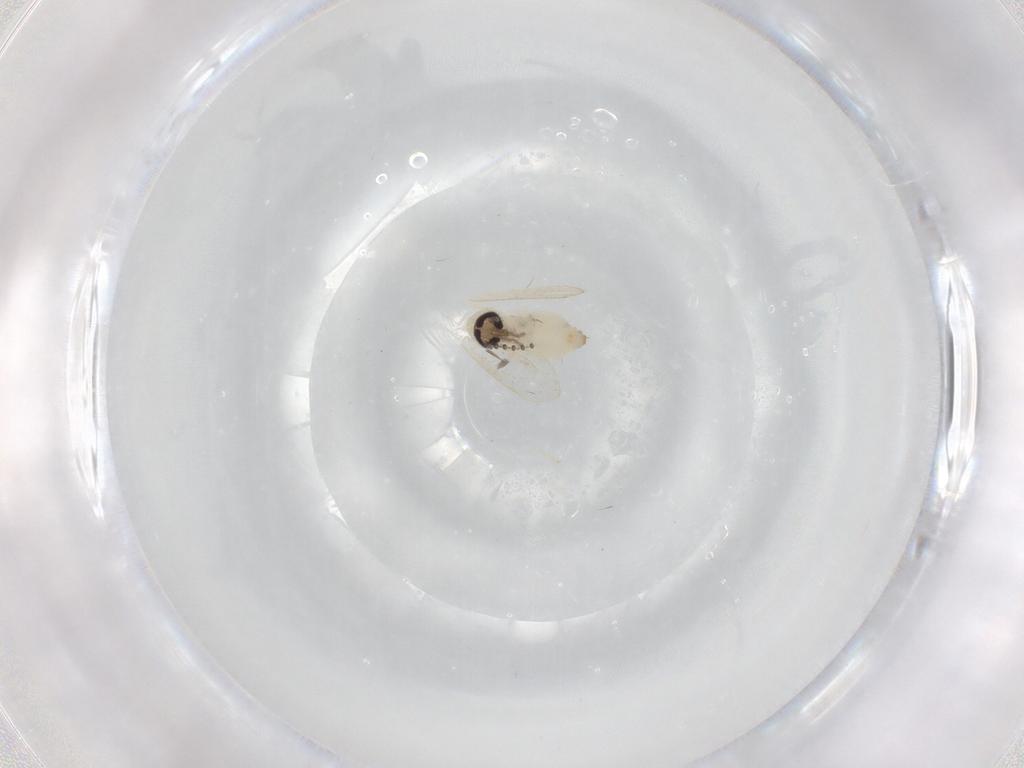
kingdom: Animalia
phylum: Arthropoda
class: Insecta
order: Diptera
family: Psychodidae
